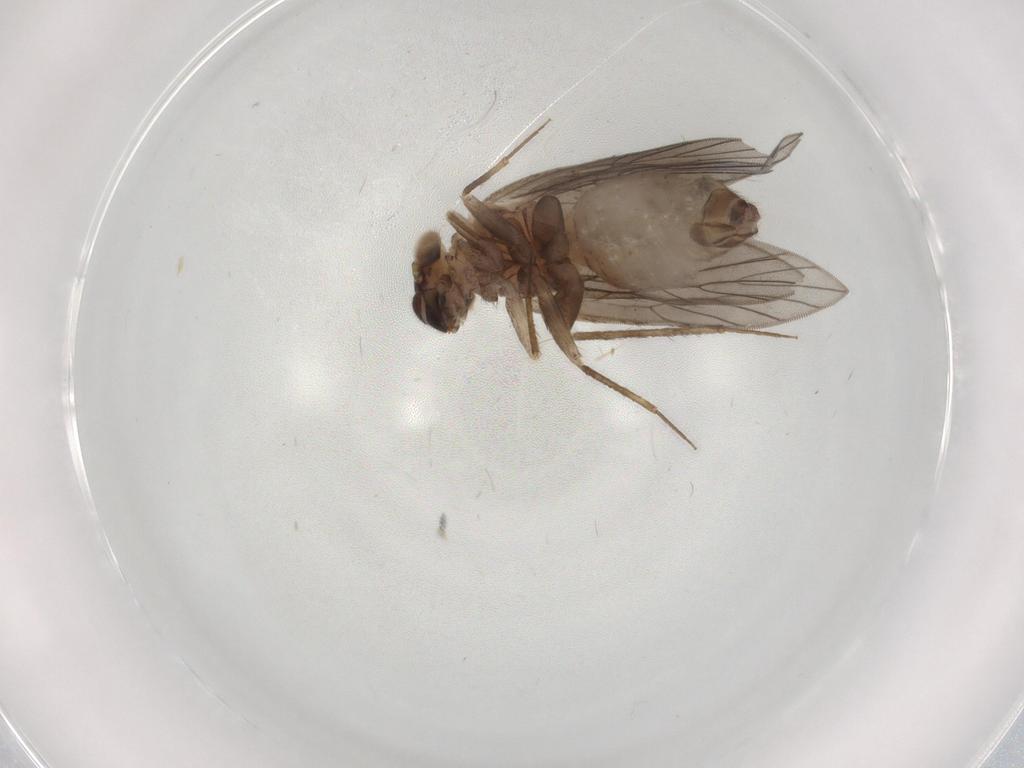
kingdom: Animalia
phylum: Arthropoda
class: Insecta
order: Psocodea
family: Lepidopsocidae
